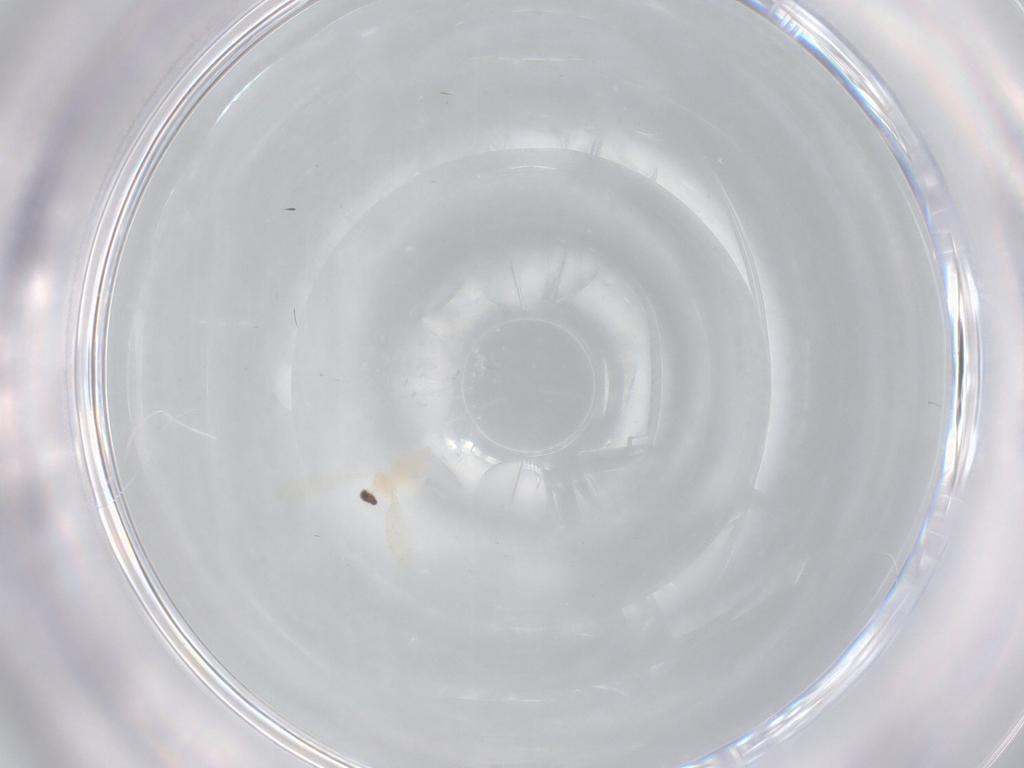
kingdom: Animalia
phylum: Arthropoda
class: Insecta
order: Diptera
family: Cecidomyiidae
